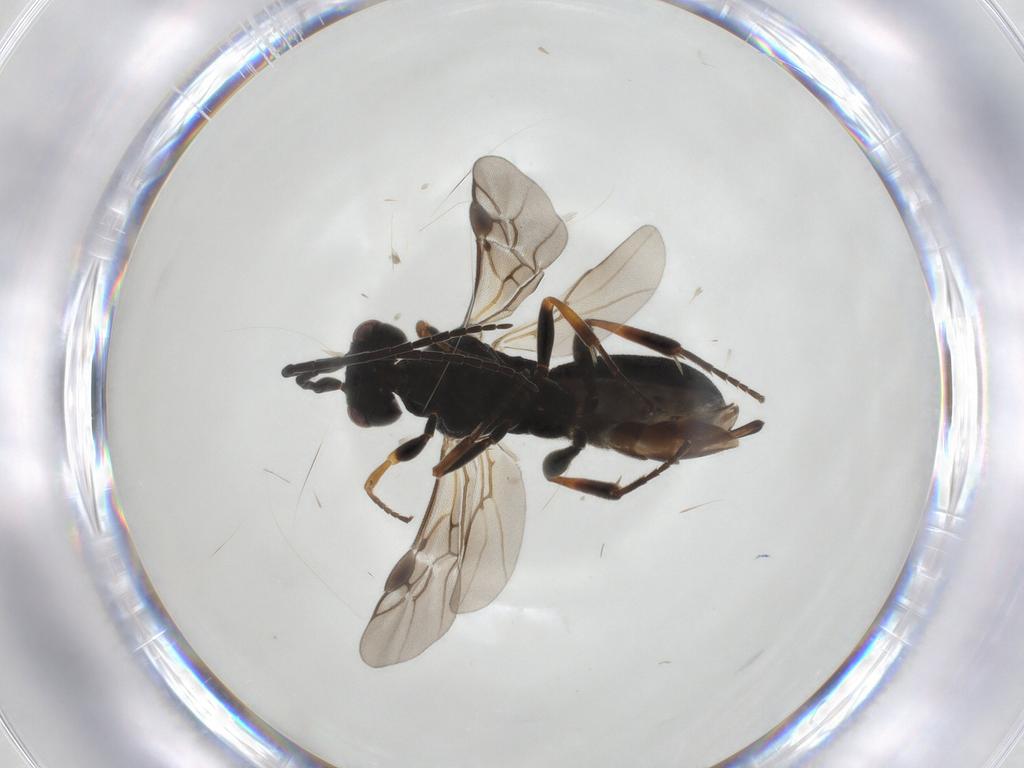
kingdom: Animalia
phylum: Arthropoda
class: Insecta
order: Hymenoptera
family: Braconidae
